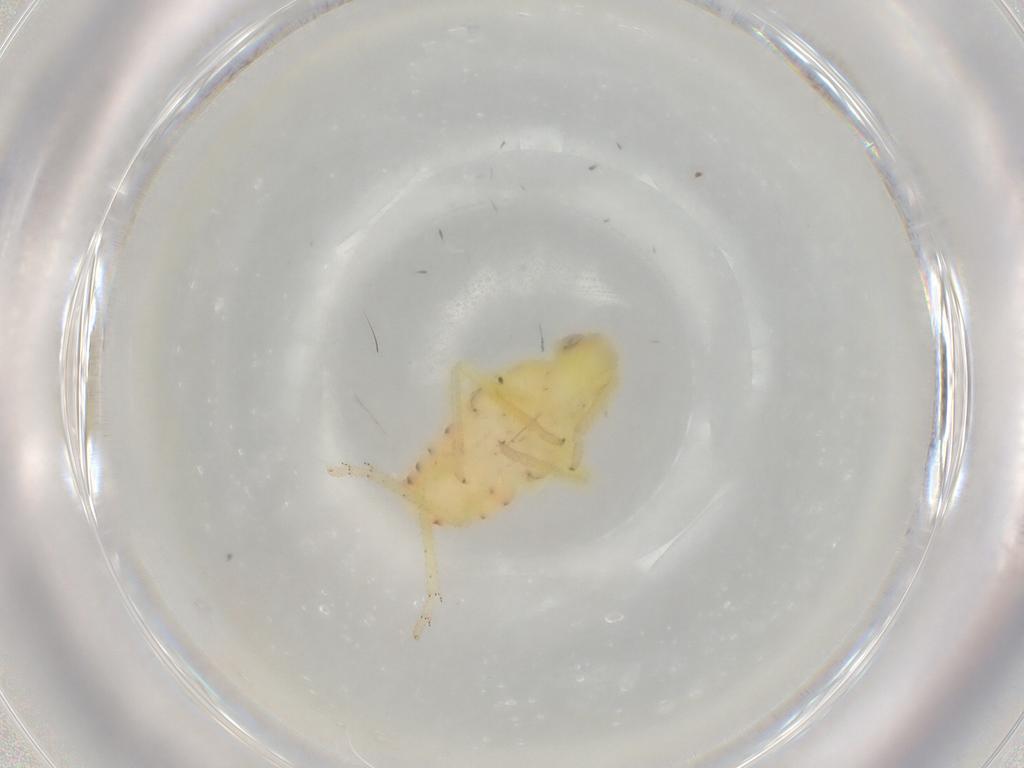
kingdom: Animalia
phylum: Arthropoda
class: Insecta
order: Hemiptera
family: Tropiduchidae
